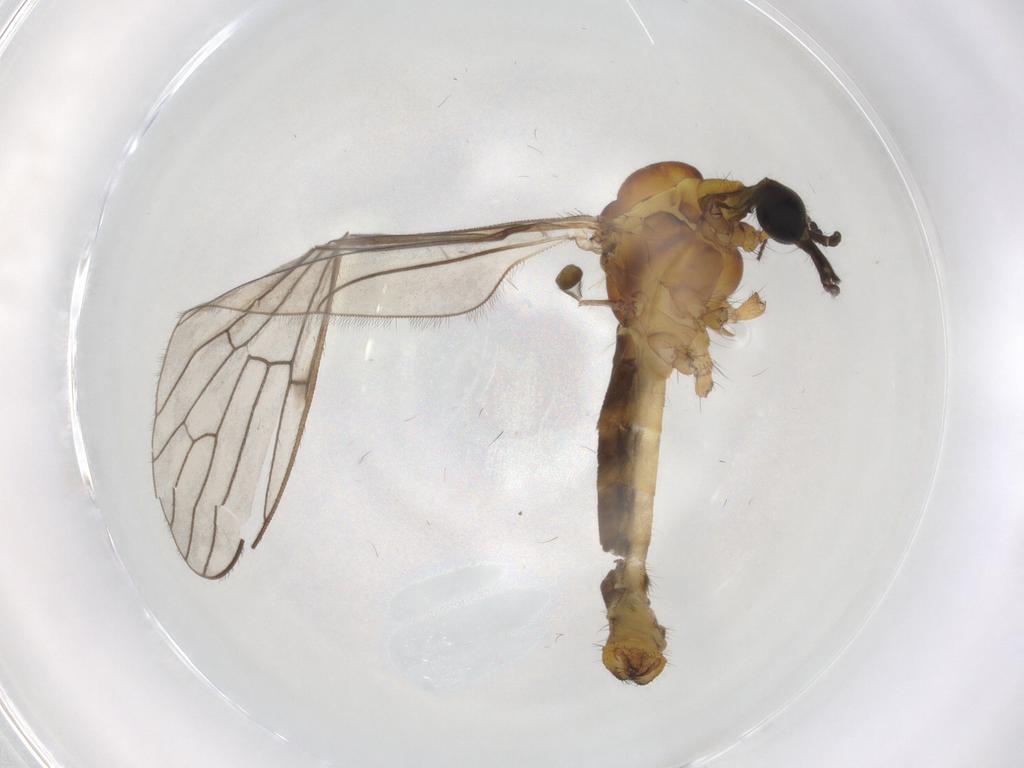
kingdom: Animalia
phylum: Arthropoda
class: Insecta
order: Diptera
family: Cecidomyiidae
